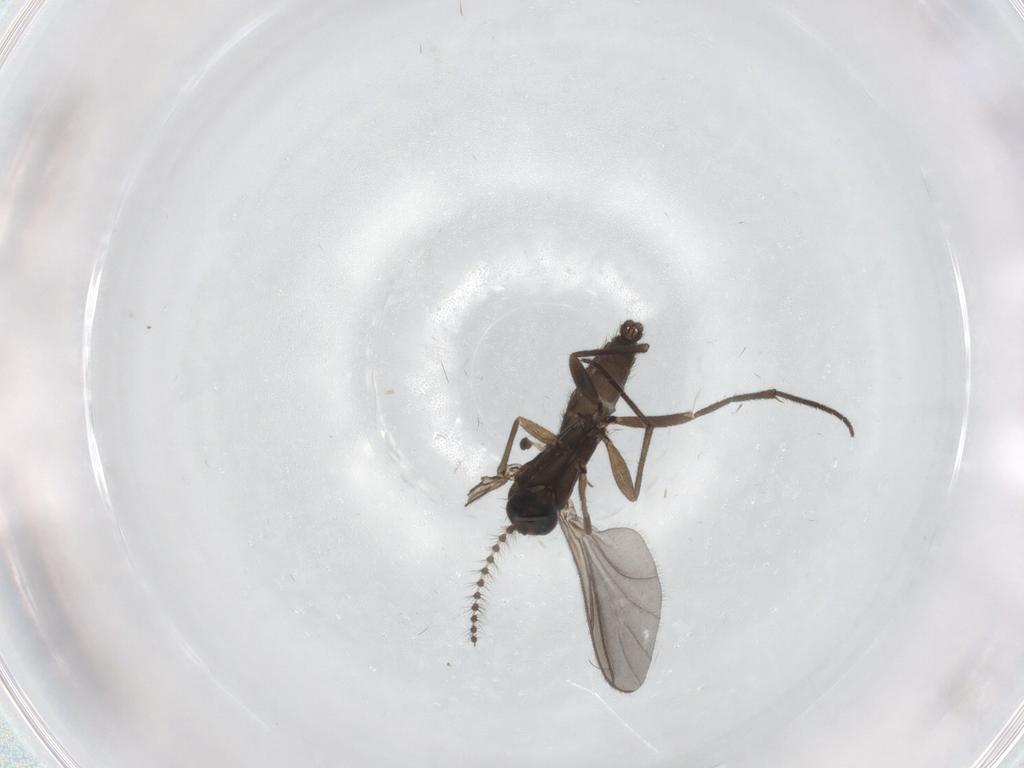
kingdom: Animalia
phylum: Arthropoda
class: Insecta
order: Diptera
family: Sciaridae
